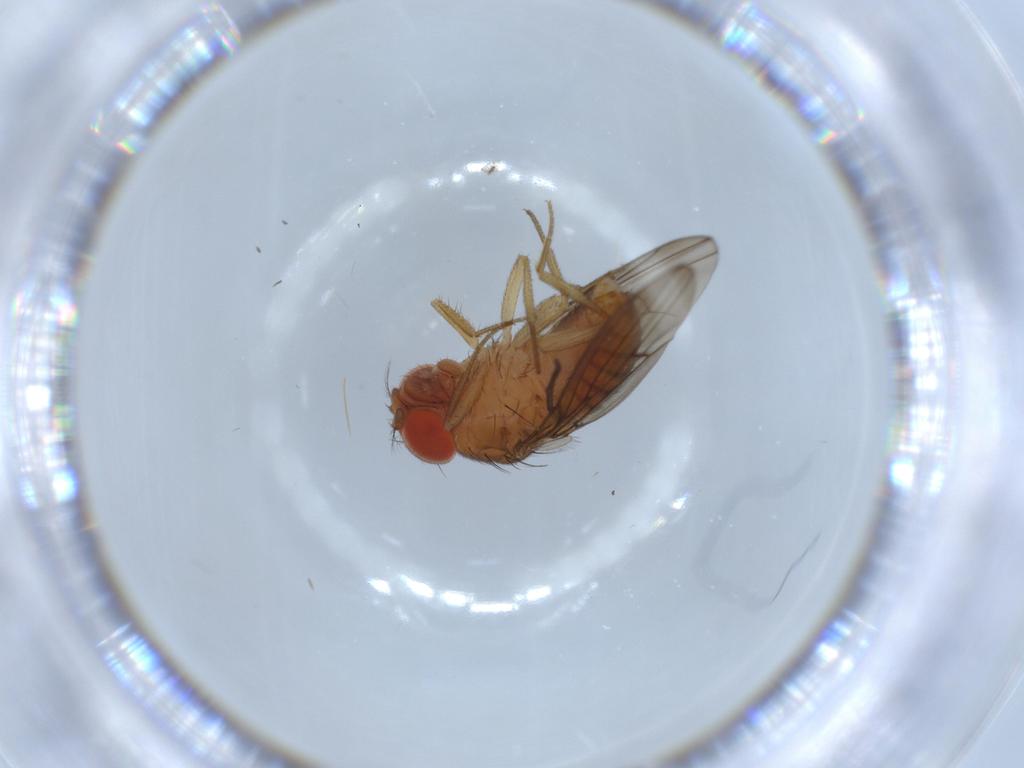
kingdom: Animalia
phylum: Arthropoda
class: Insecta
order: Diptera
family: Drosophilidae
